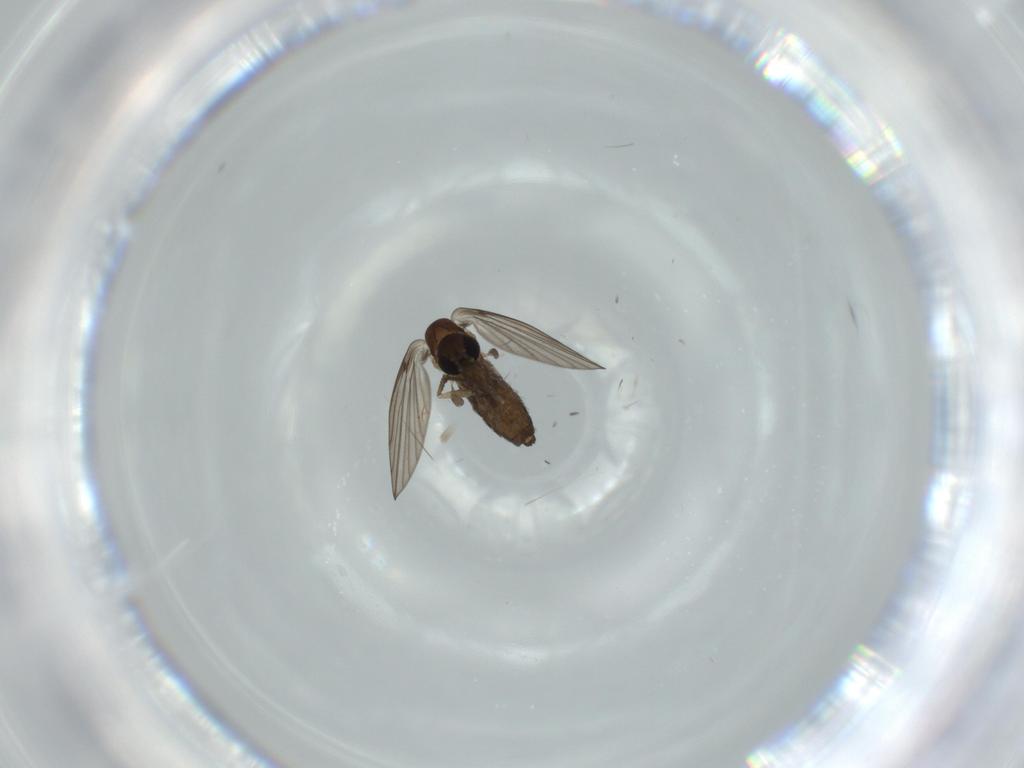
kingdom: Animalia
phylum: Arthropoda
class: Insecta
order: Diptera
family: Psychodidae
